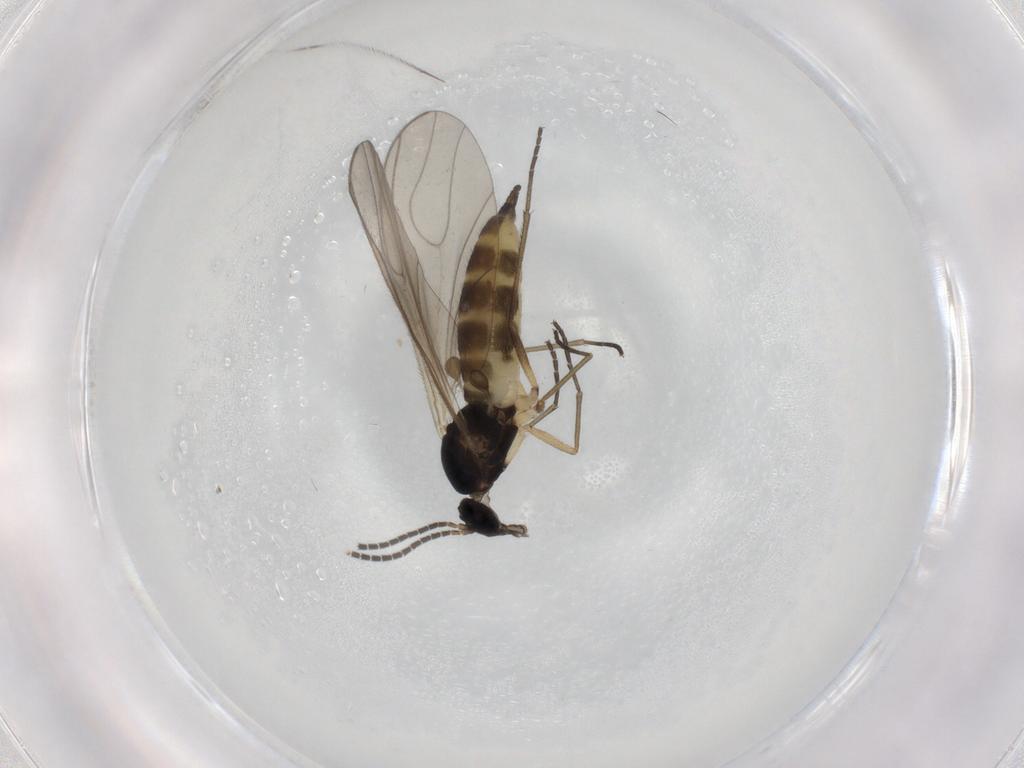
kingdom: Animalia
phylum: Arthropoda
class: Insecta
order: Diptera
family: Sciaridae
